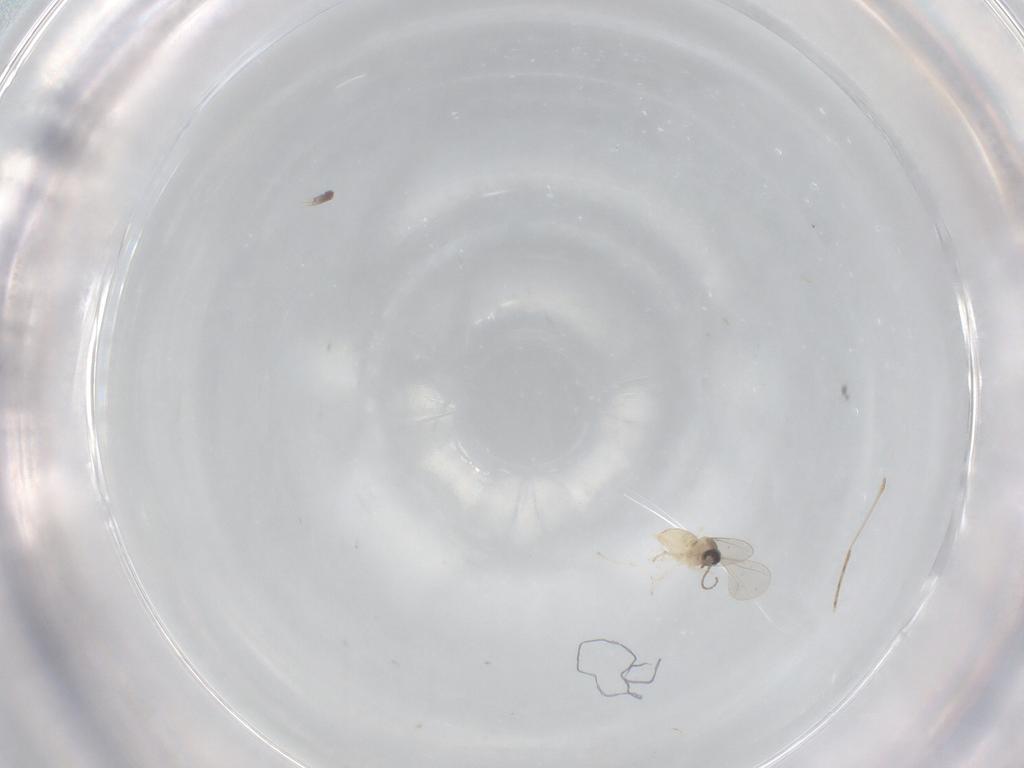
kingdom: Animalia
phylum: Arthropoda
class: Insecta
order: Diptera
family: Cecidomyiidae
